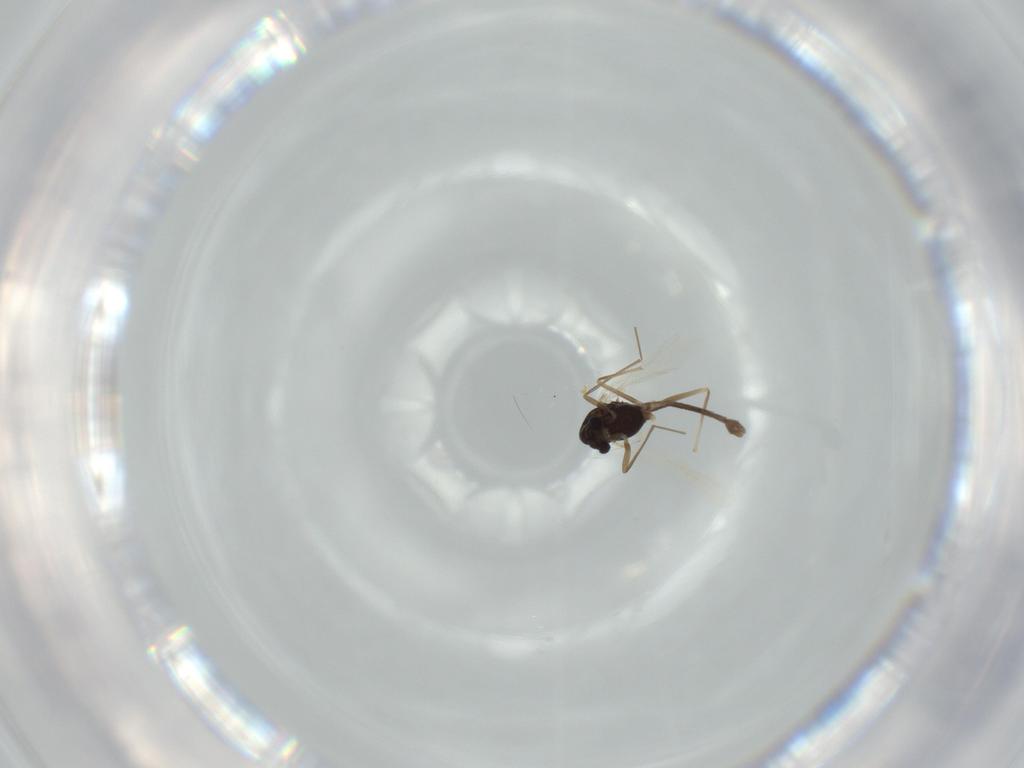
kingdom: Animalia
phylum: Arthropoda
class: Insecta
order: Diptera
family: Mycetophilidae
